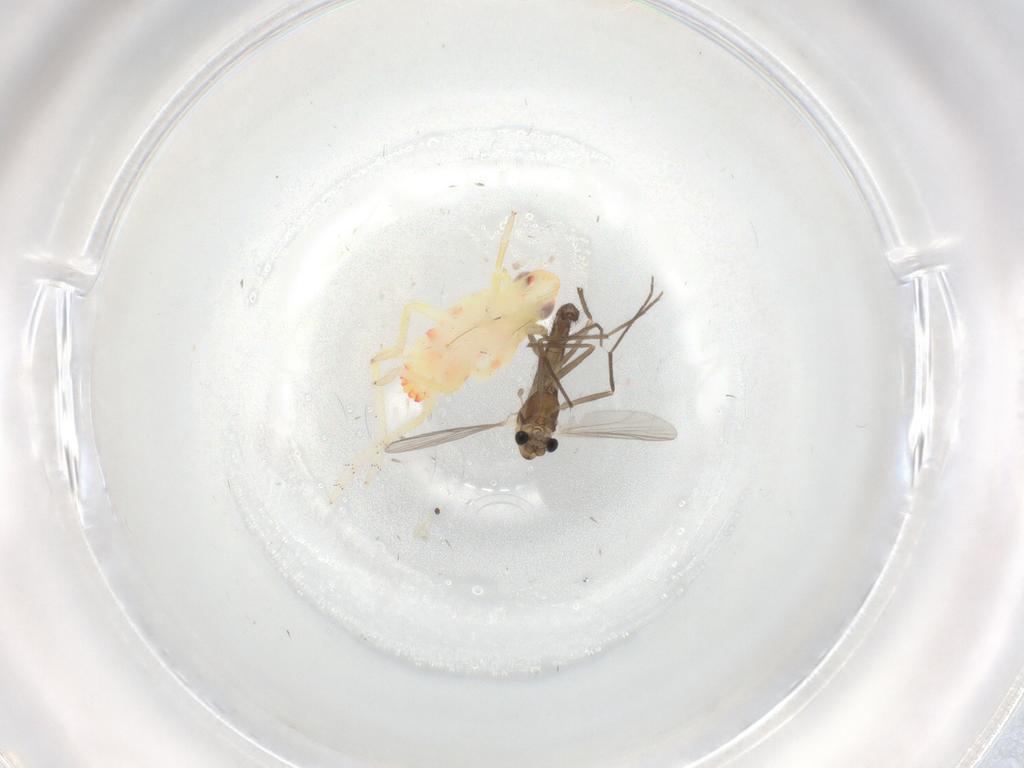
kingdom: Animalia
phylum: Arthropoda
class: Insecta
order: Diptera
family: Chironomidae
